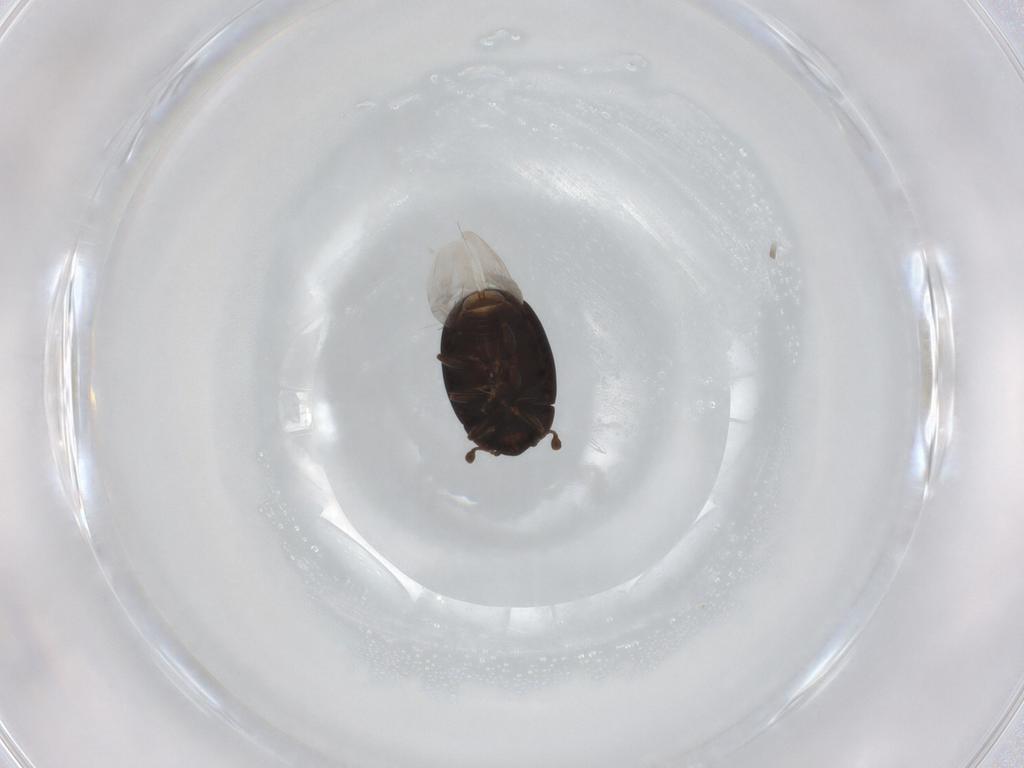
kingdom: Animalia
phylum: Arthropoda
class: Insecta
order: Coleoptera
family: Discolomatidae
